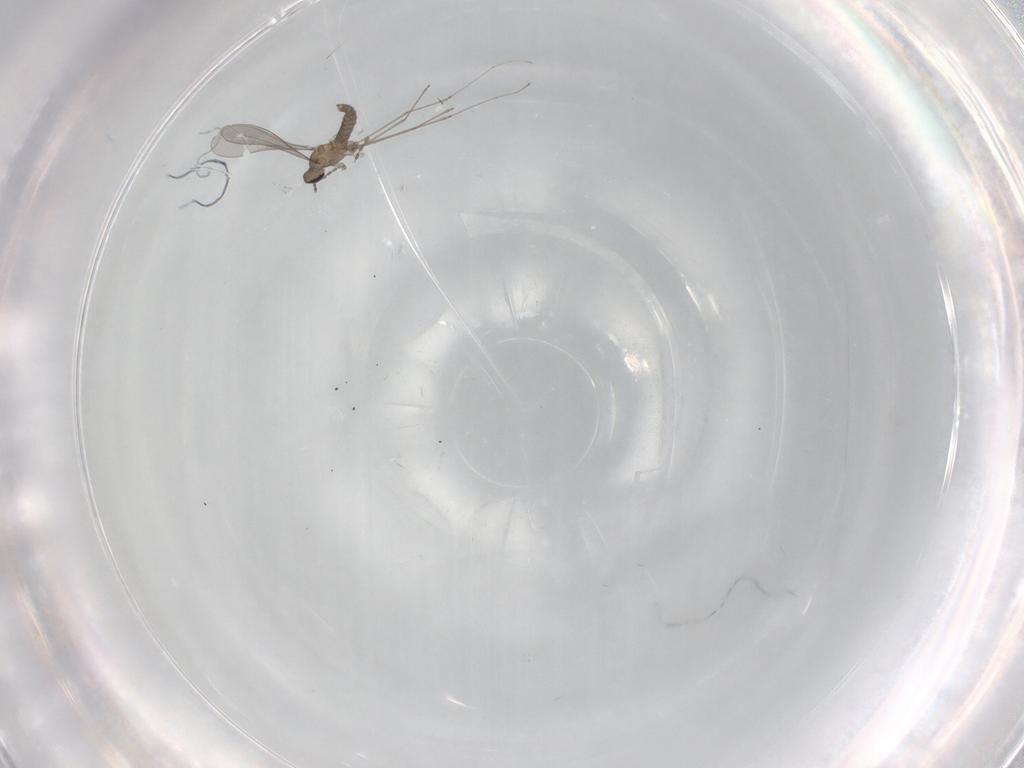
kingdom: Animalia
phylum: Arthropoda
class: Insecta
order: Diptera
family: Cecidomyiidae
